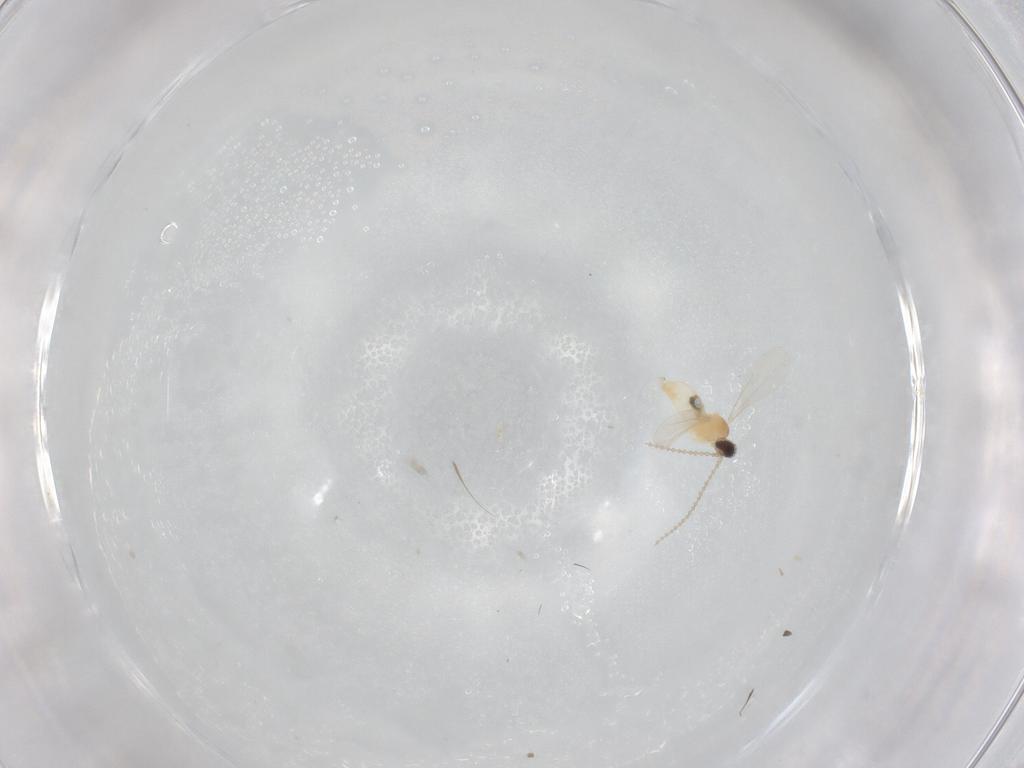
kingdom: Animalia
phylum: Arthropoda
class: Insecta
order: Diptera
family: Cecidomyiidae
